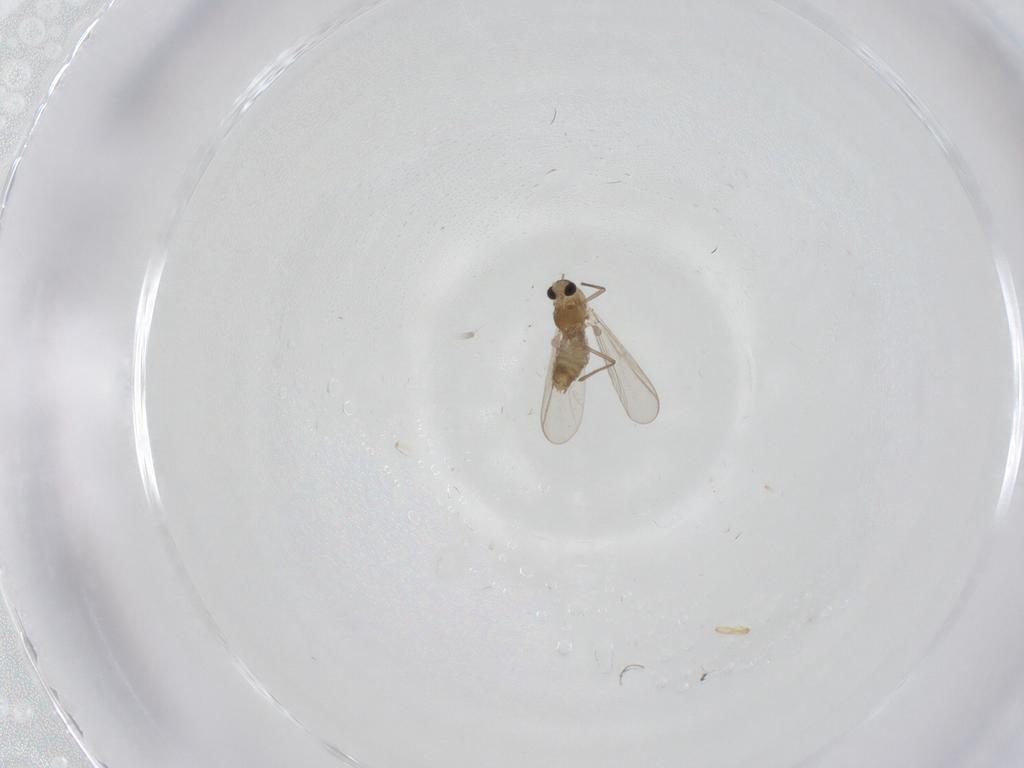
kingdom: Animalia
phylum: Arthropoda
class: Insecta
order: Diptera
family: Chironomidae
